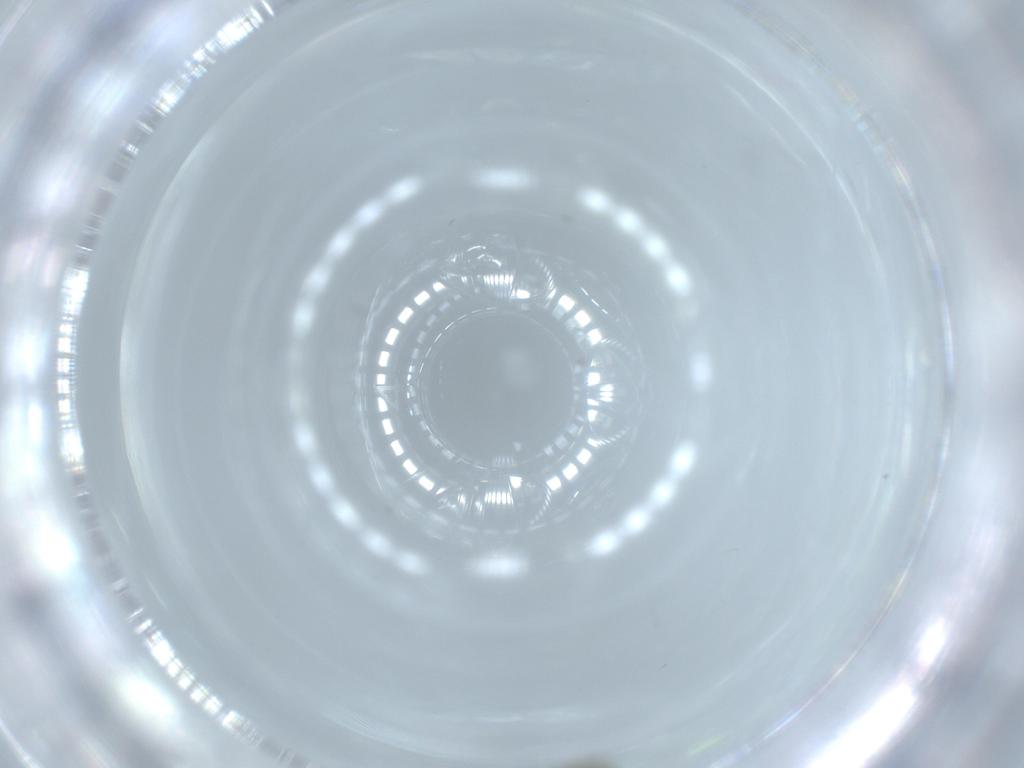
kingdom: Animalia
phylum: Arthropoda
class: Insecta
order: Diptera
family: Chironomidae
